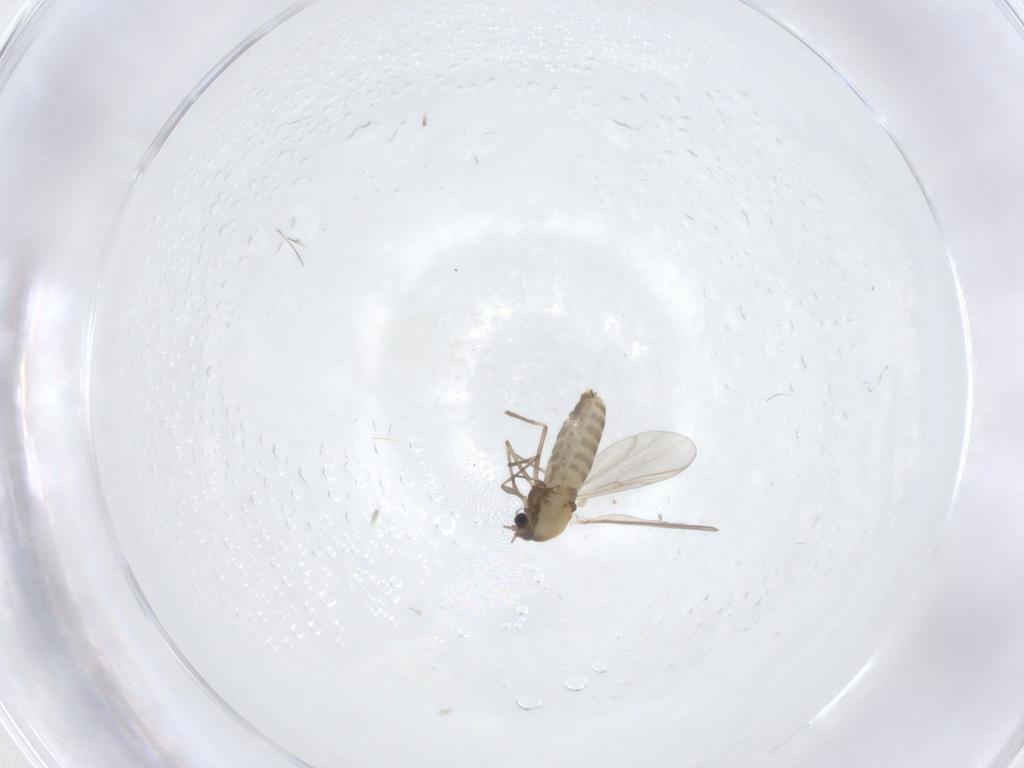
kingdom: Animalia
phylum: Arthropoda
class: Insecta
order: Diptera
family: Chironomidae
